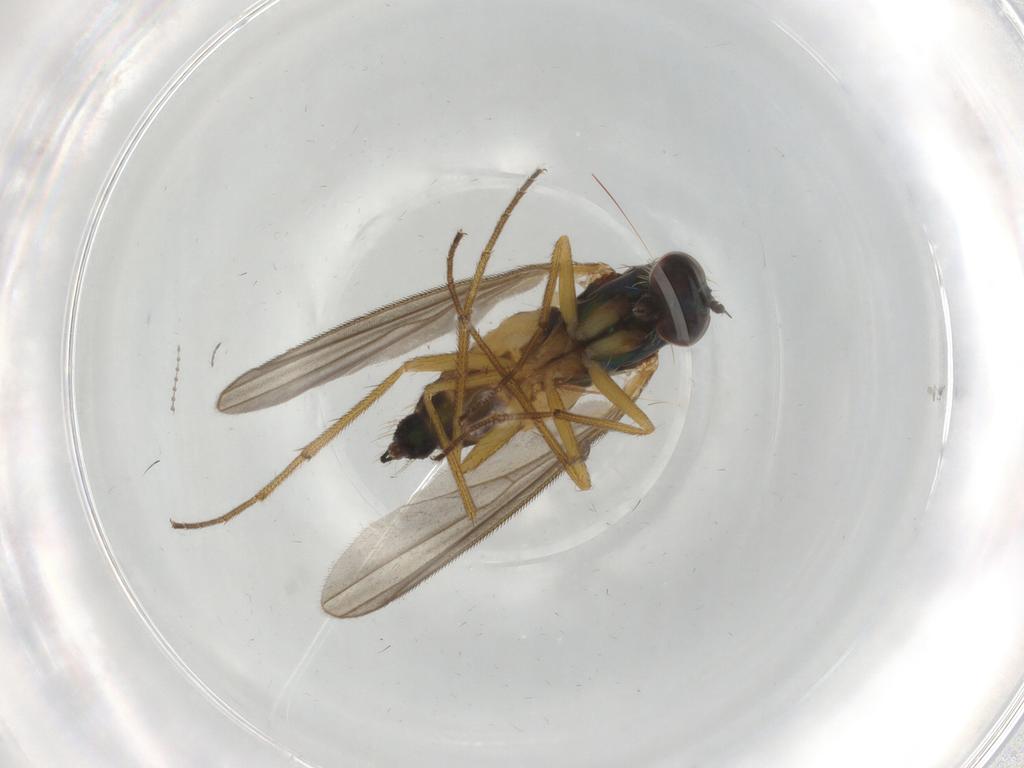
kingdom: Animalia
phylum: Arthropoda
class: Insecta
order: Diptera
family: Dolichopodidae
